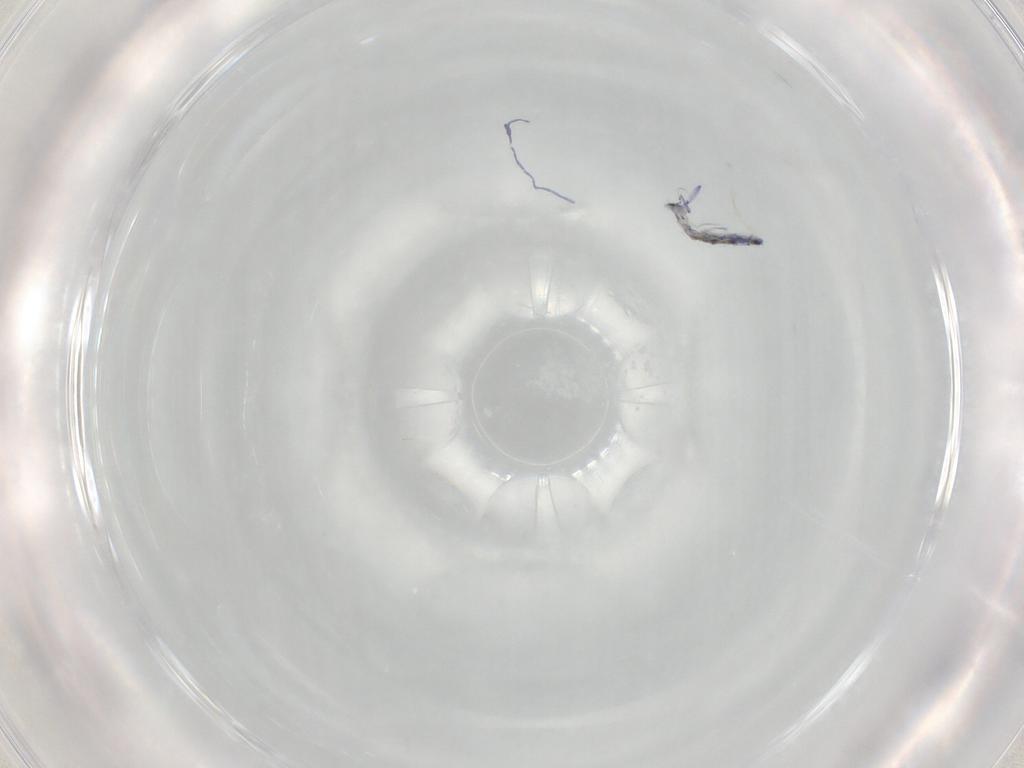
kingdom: Animalia
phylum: Arthropoda
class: Collembola
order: Entomobryomorpha
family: Entomobryidae
